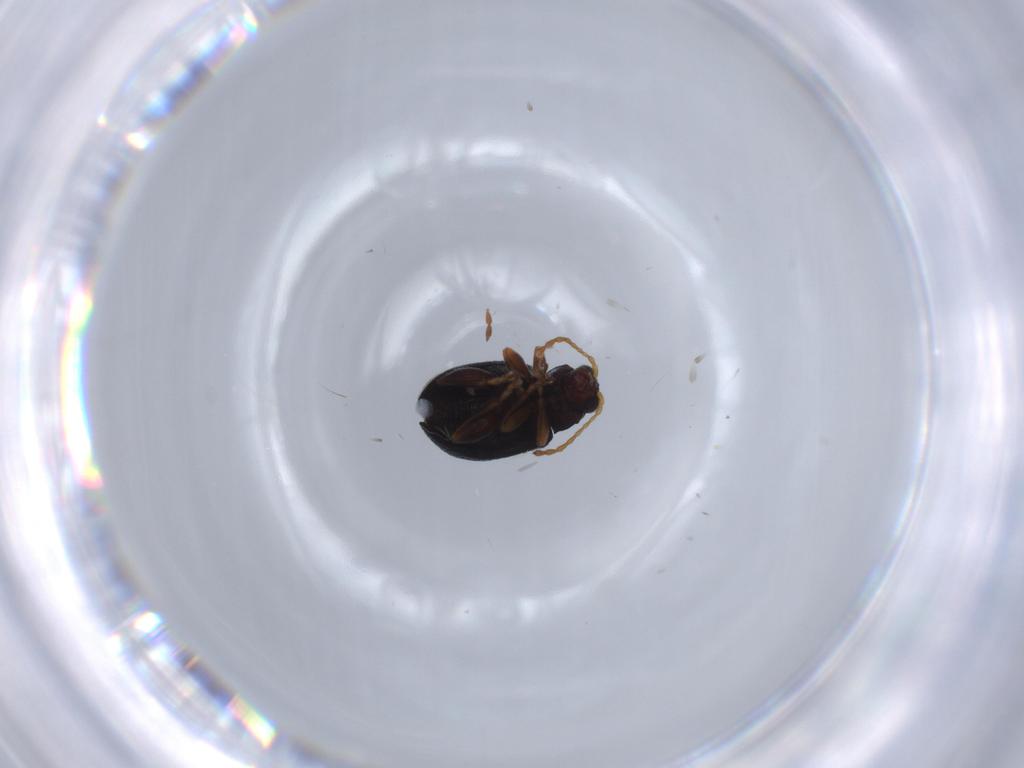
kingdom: Animalia
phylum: Arthropoda
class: Insecta
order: Coleoptera
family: Chrysomelidae
